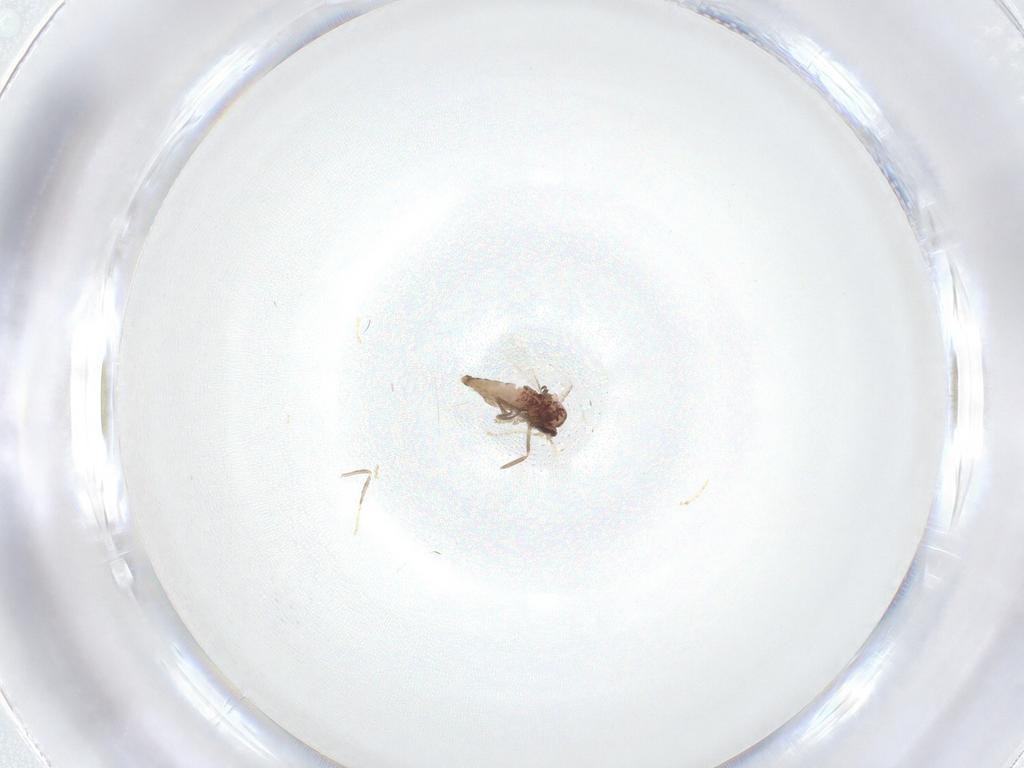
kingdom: Animalia
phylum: Arthropoda
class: Insecta
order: Diptera
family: Ceratopogonidae
